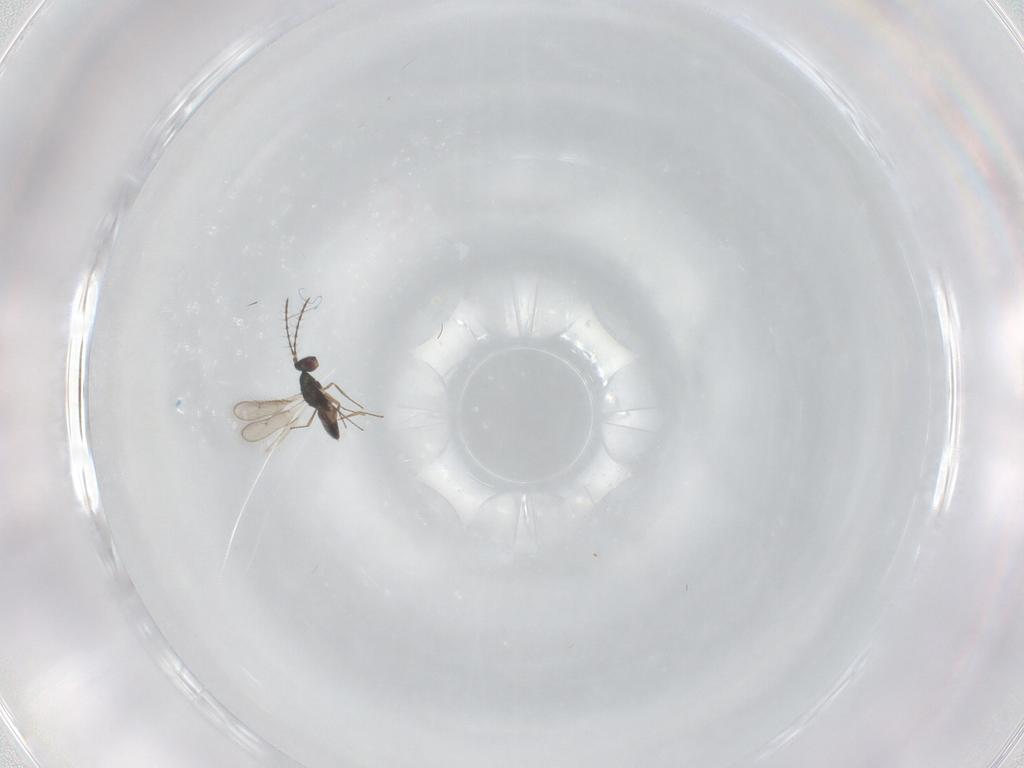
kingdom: Animalia
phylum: Arthropoda
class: Insecta
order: Hymenoptera
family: Pteromalidae
